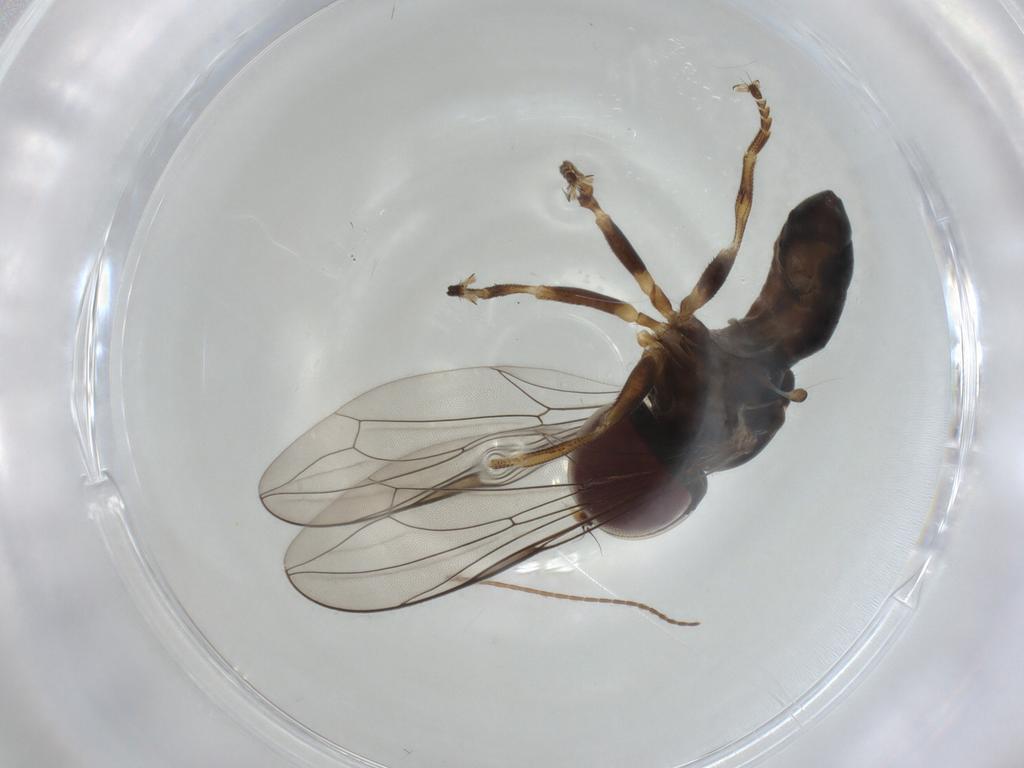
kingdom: Animalia
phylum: Arthropoda
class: Insecta
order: Diptera
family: Pipunculidae
